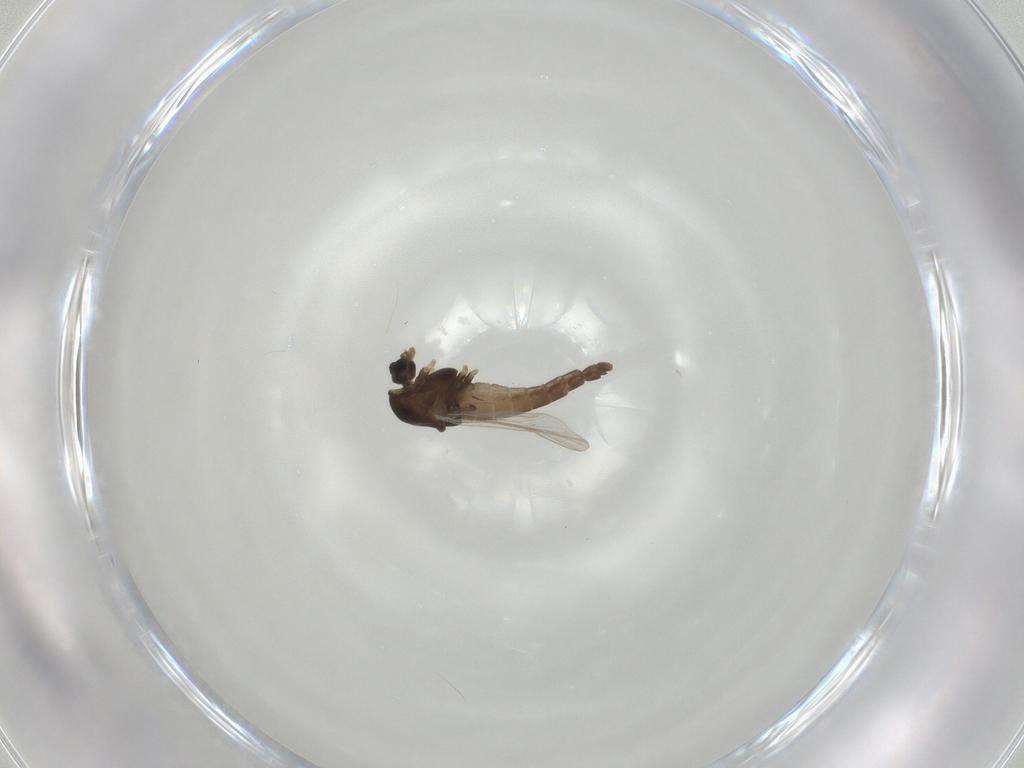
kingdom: Animalia
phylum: Arthropoda
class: Insecta
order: Diptera
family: Chironomidae
